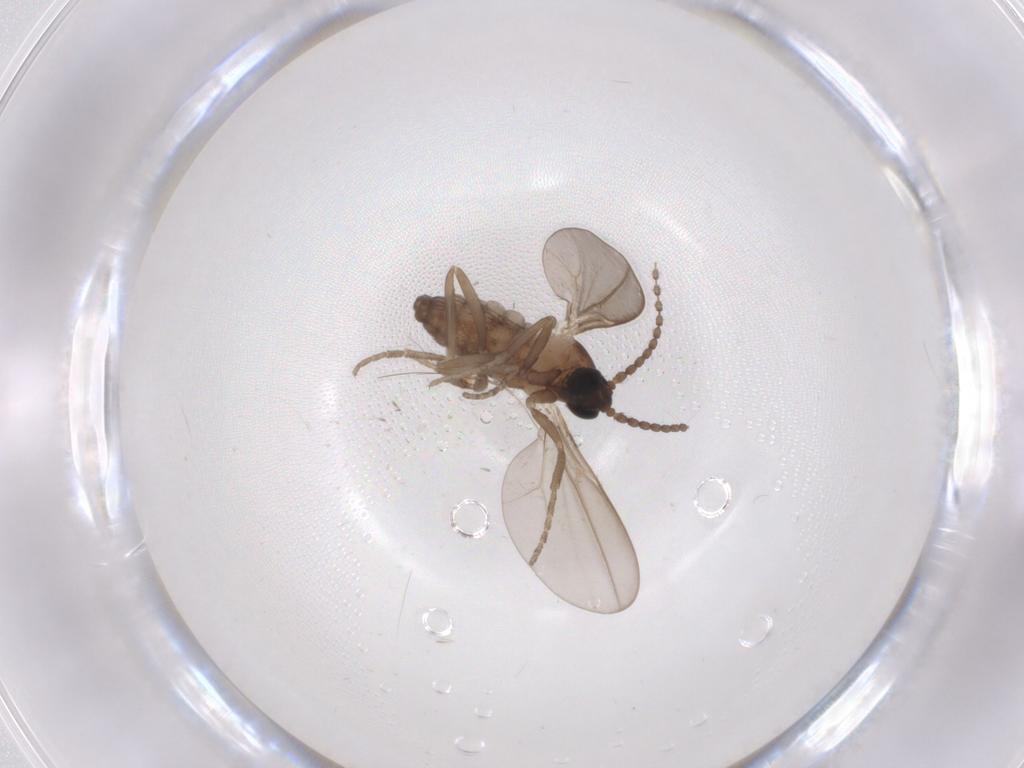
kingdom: Animalia
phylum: Arthropoda
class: Insecta
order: Diptera
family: Cecidomyiidae
